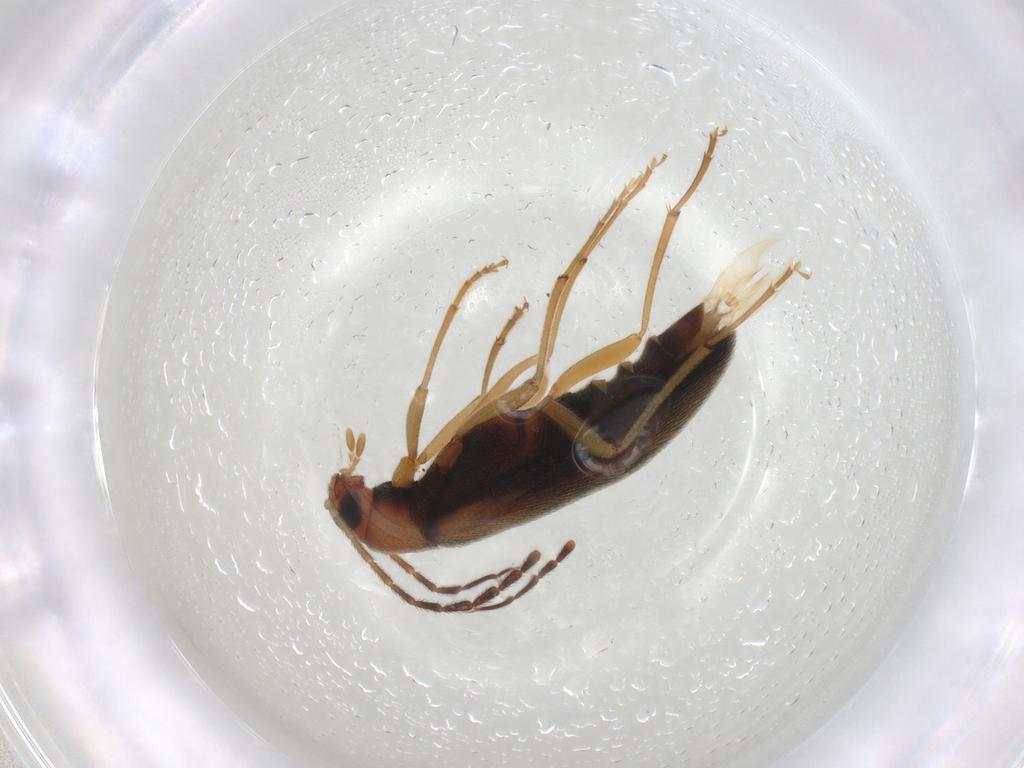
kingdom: Animalia
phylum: Arthropoda
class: Insecta
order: Coleoptera
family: Melandryidae
